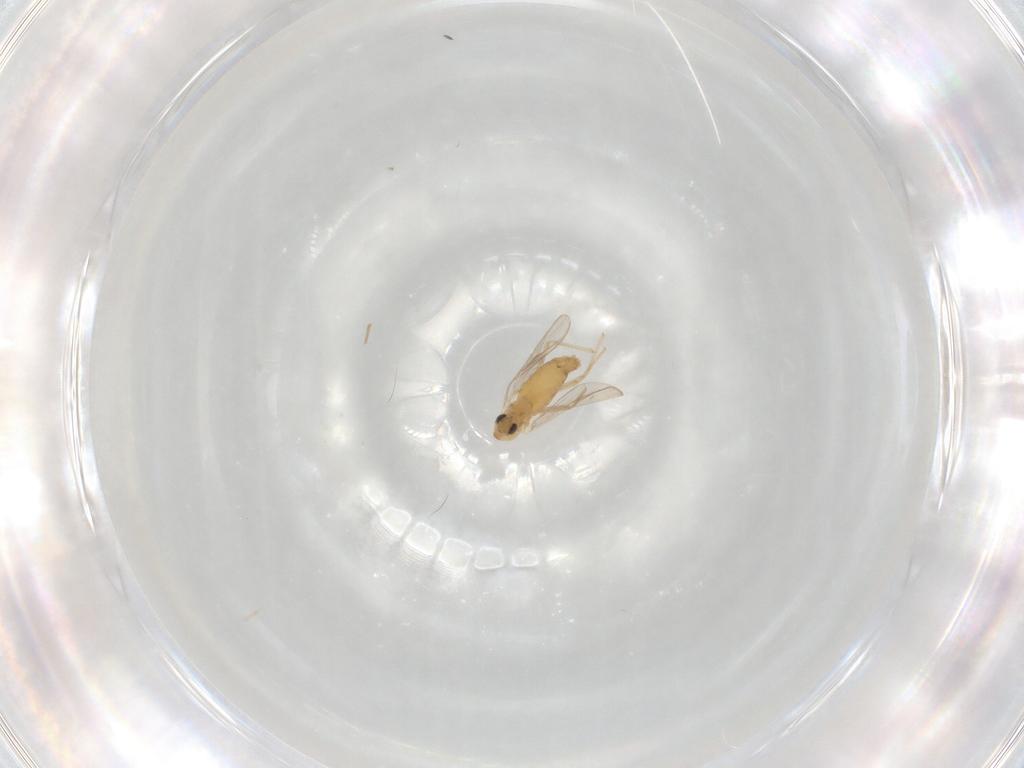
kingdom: Animalia
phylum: Arthropoda
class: Insecta
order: Diptera
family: Chironomidae
